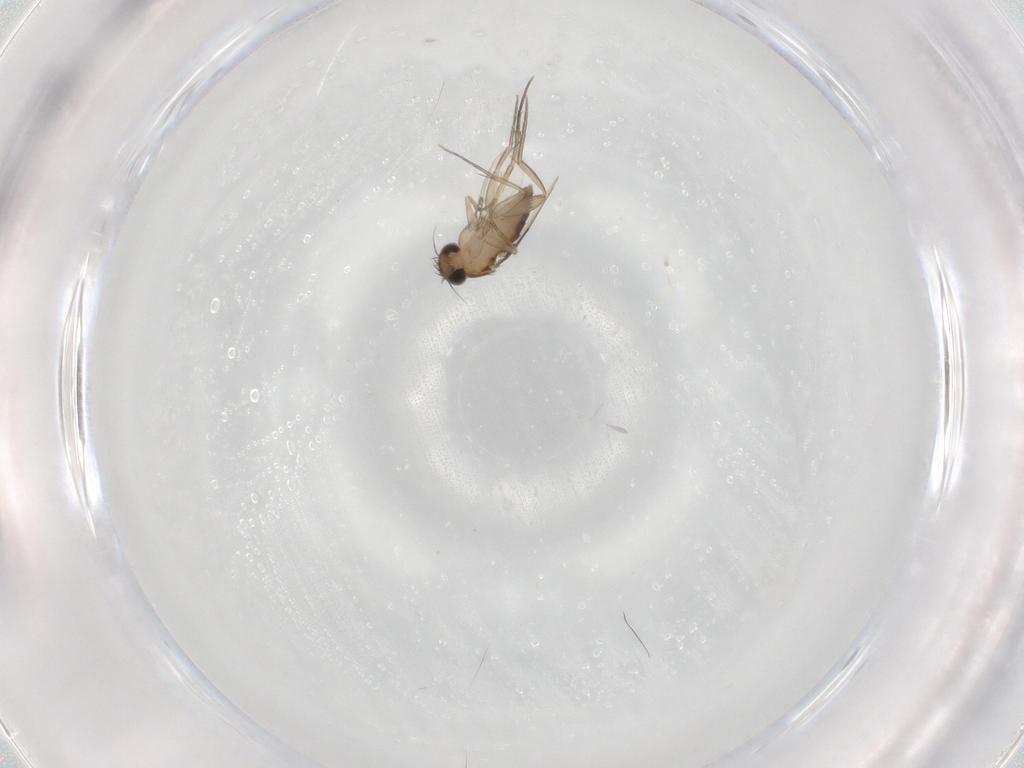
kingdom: Animalia
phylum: Arthropoda
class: Insecta
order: Diptera
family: Phoridae
